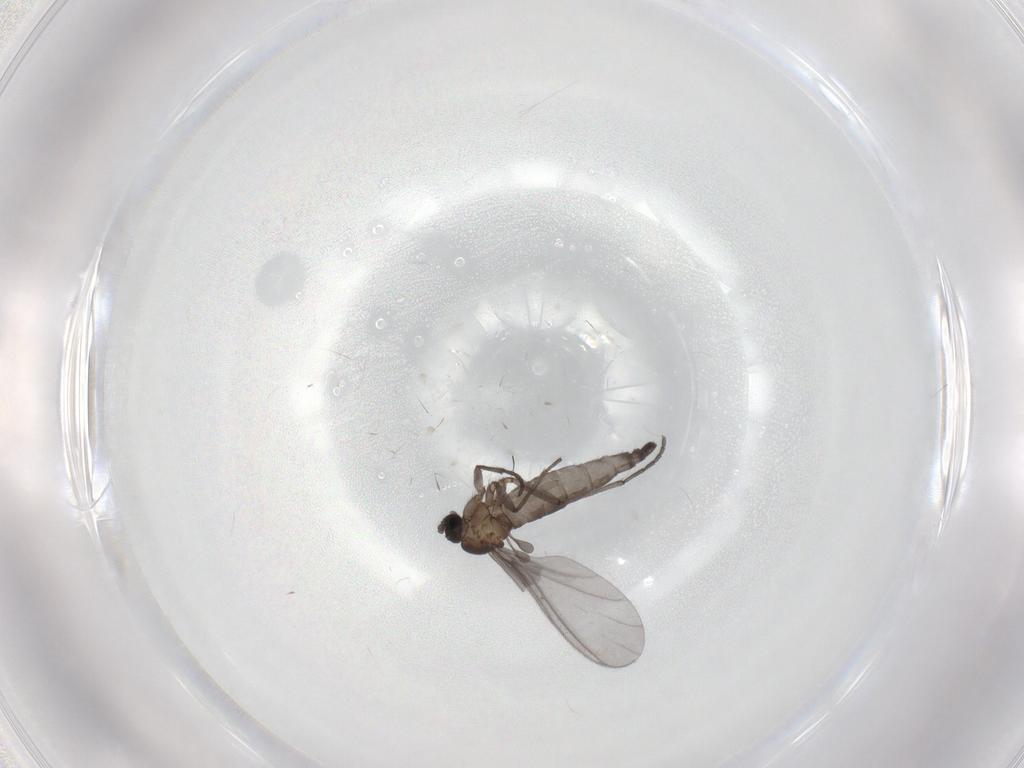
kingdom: Animalia
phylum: Arthropoda
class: Insecta
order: Diptera
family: Sciaridae
